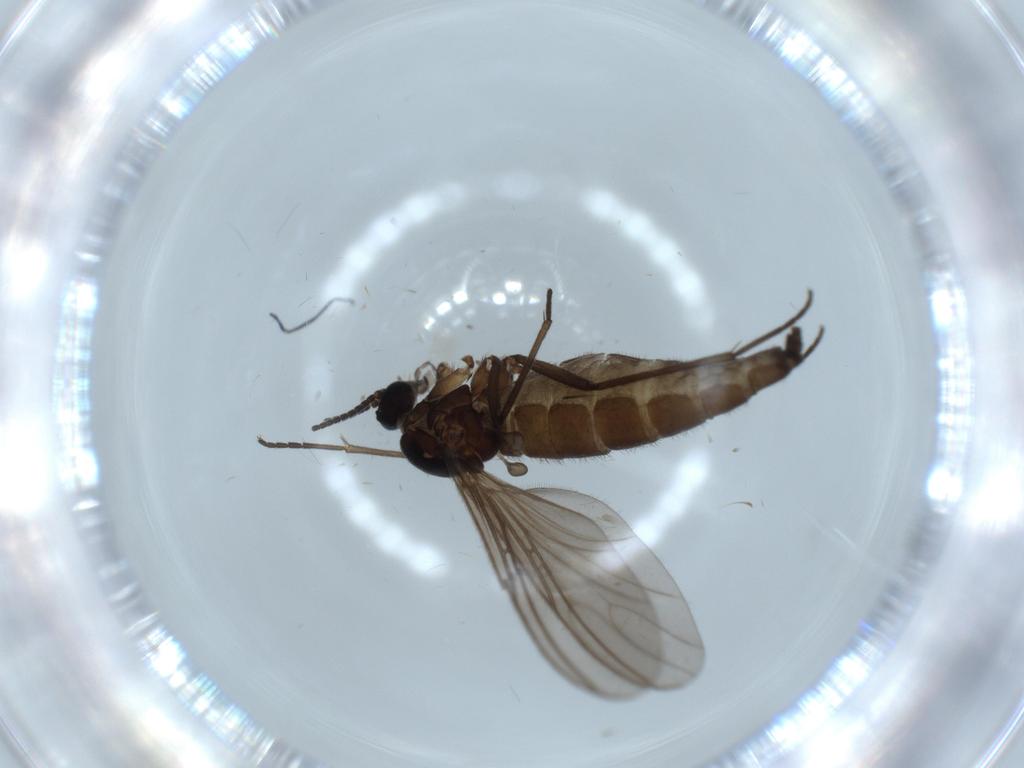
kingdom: Animalia
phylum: Arthropoda
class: Insecta
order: Diptera
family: Sciaridae
